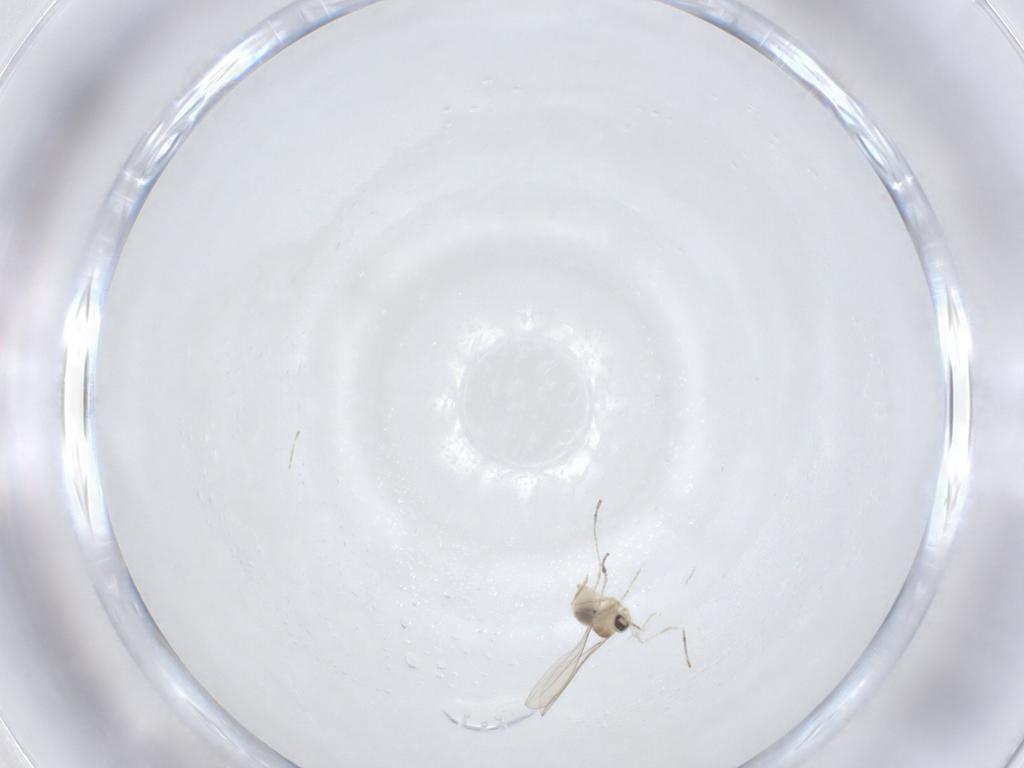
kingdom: Animalia
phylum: Arthropoda
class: Insecta
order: Diptera
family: Cecidomyiidae
